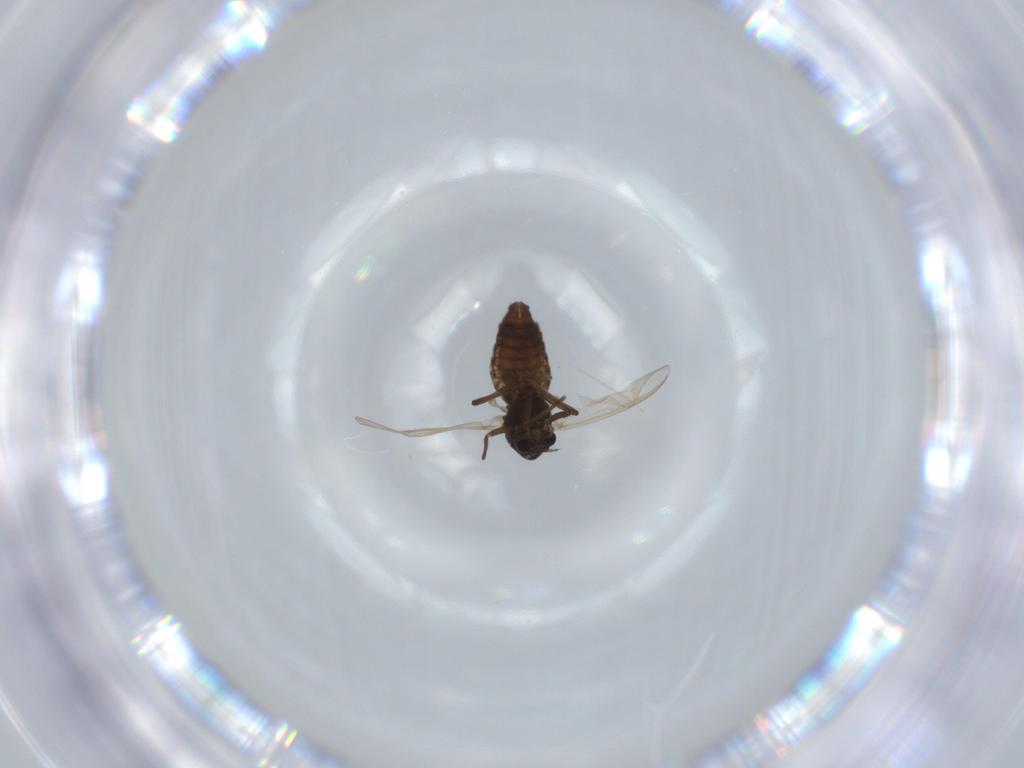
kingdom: Animalia
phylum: Arthropoda
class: Insecta
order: Diptera
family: Chironomidae
